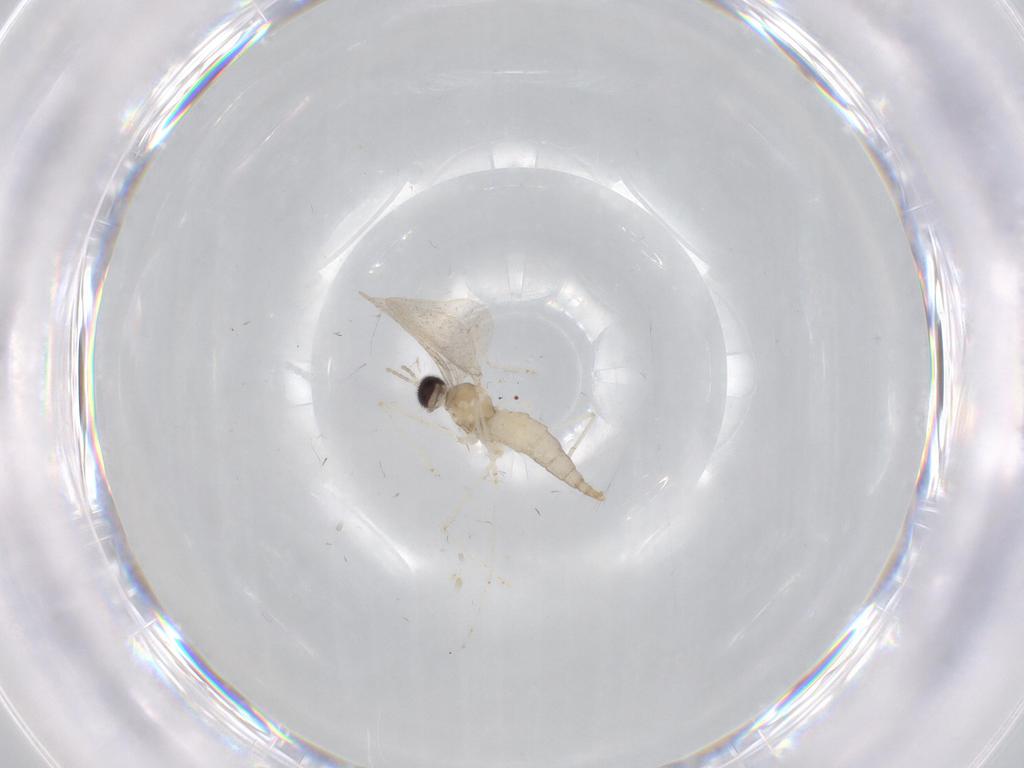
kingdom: Animalia
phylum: Arthropoda
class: Insecta
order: Diptera
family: Cecidomyiidae
